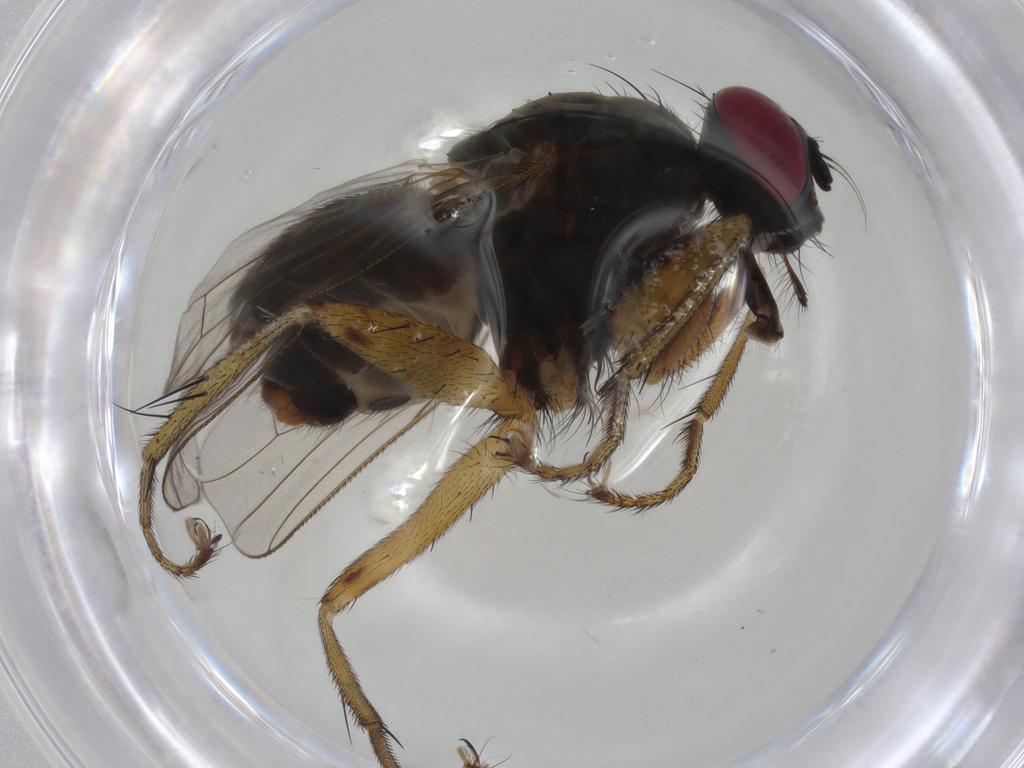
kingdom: Animalia
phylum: Arthropoda
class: Insecta
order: Diptera
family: Muscidae
